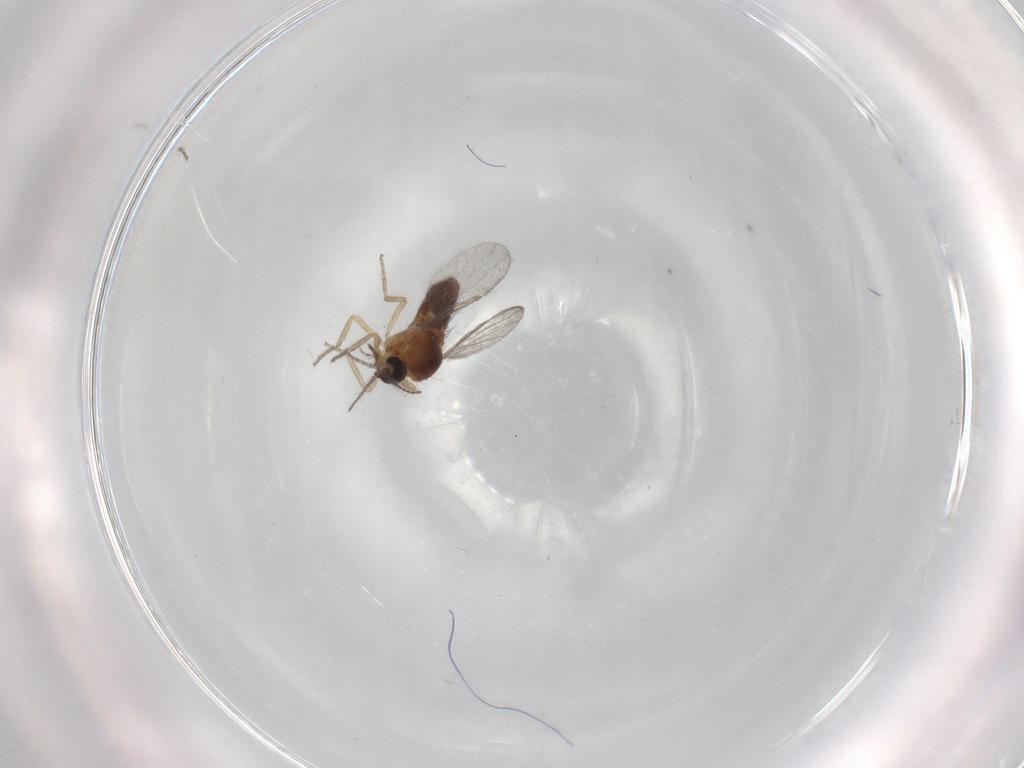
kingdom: Animalia
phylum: Arthropoda
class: Insecta
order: Diptera
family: Ceratopogonidae
